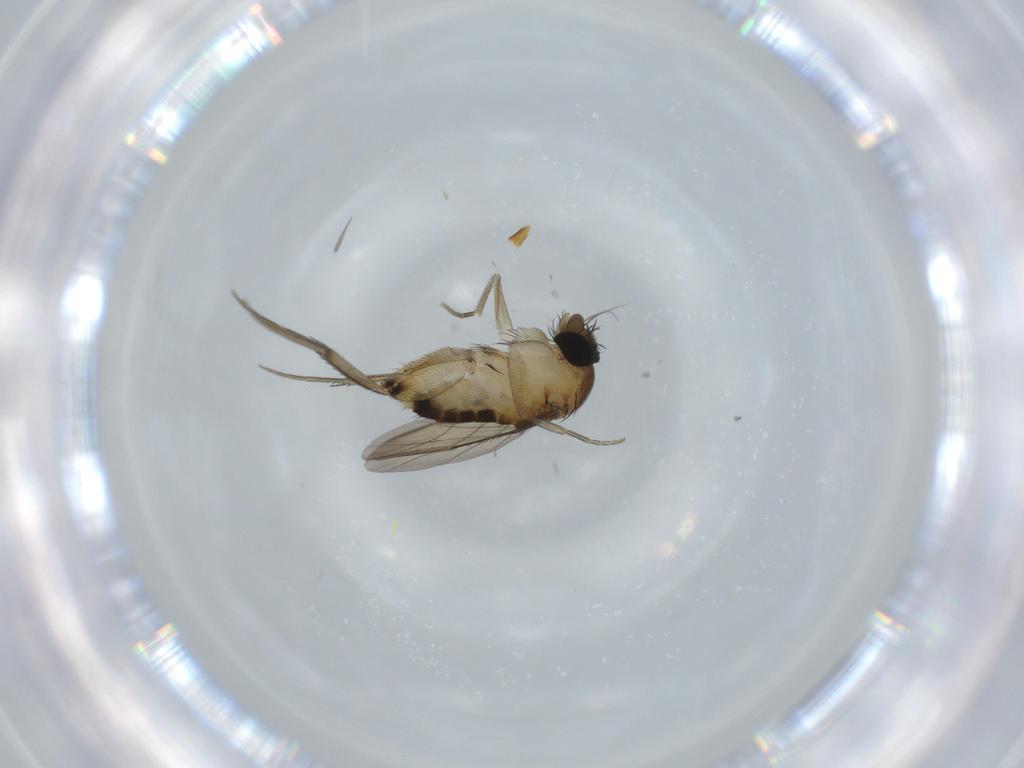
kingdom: Animalia
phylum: Arthropoda
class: Insecta
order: Diptera
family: Phoridae
